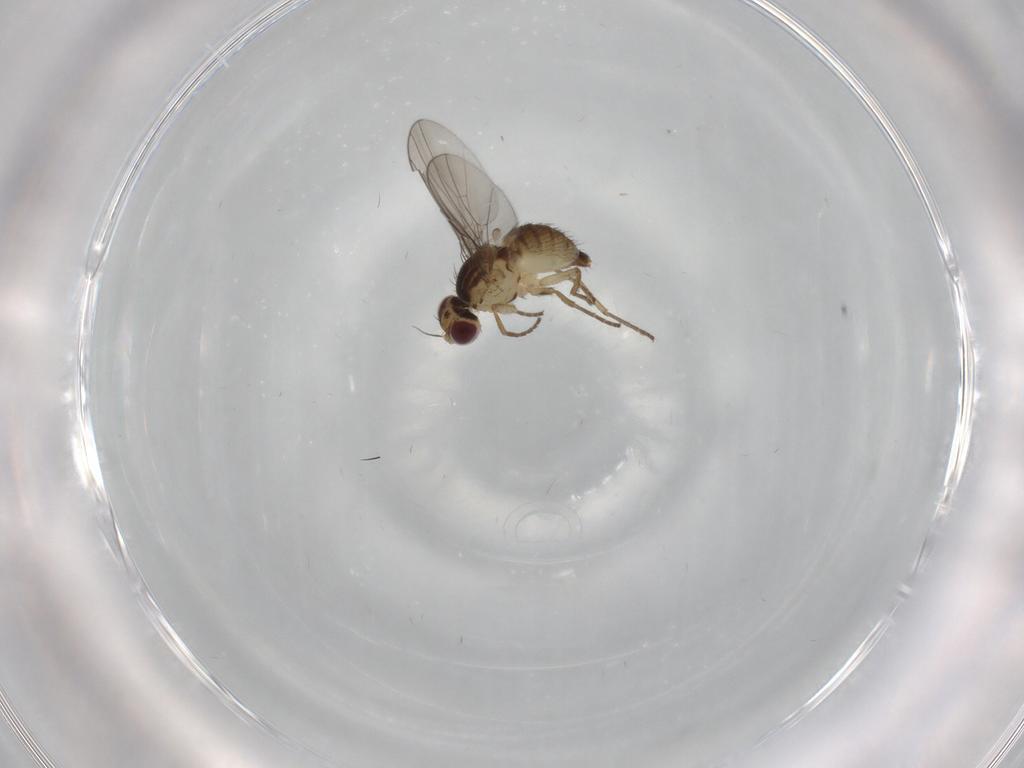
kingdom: Animalia
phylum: Arthropoda
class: Insecta
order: Diptera
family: Agromyzidae
